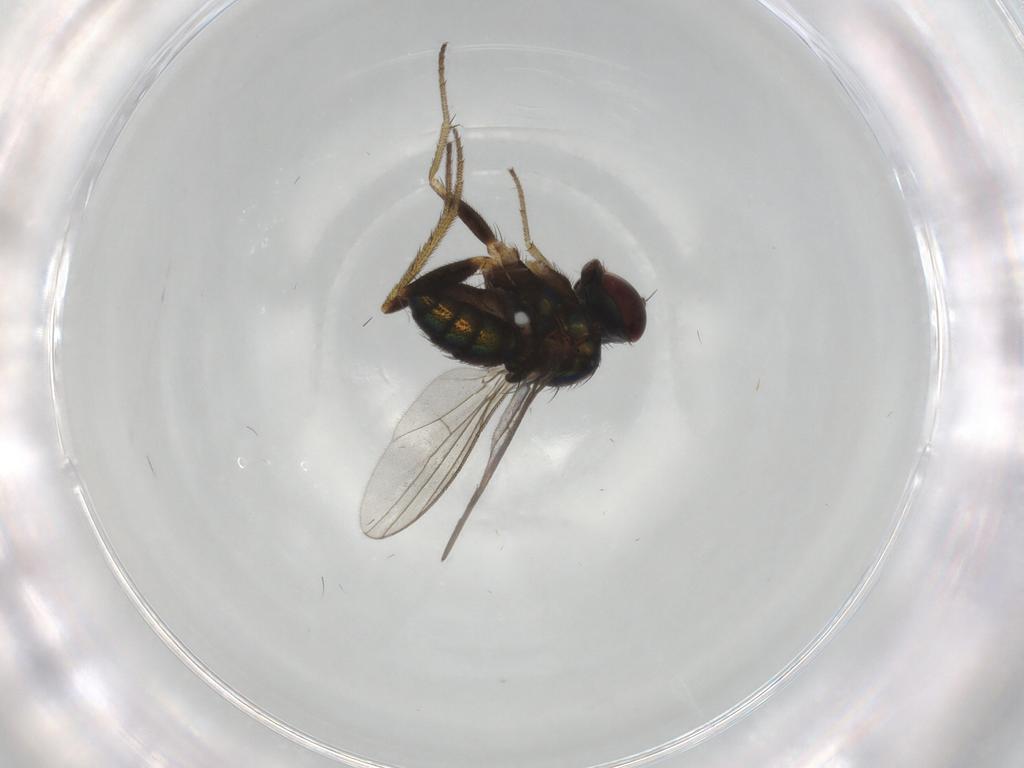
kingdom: Animalia
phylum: Arthropoda
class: Insecta
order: Diptera
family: Dolichopodidae
